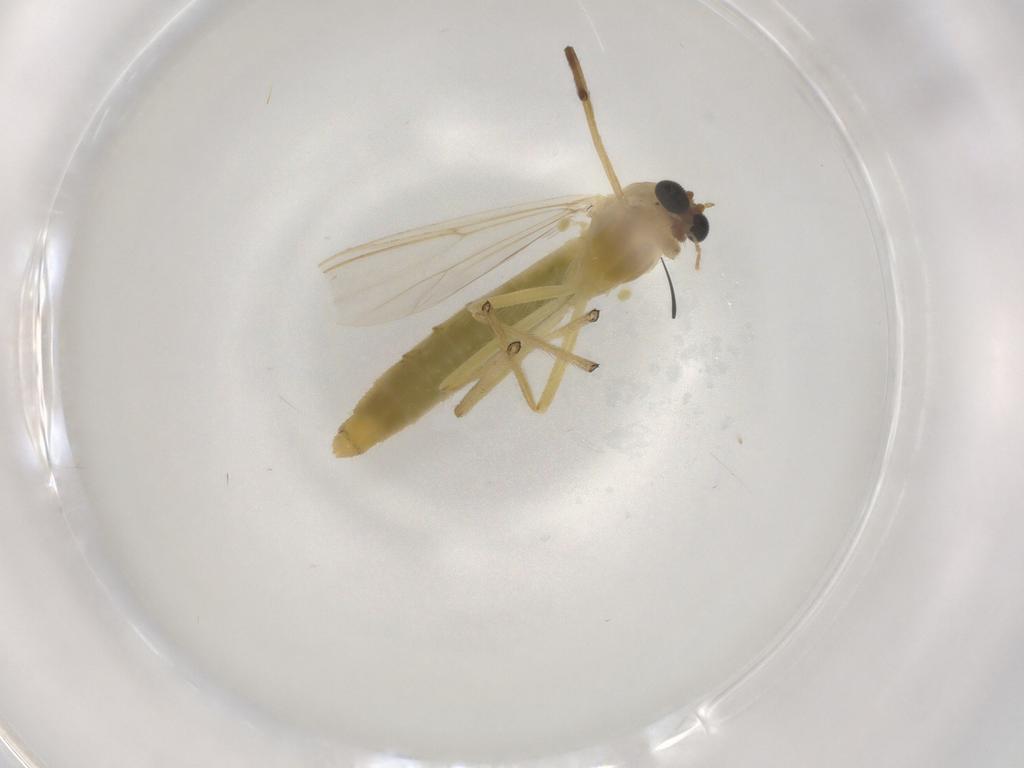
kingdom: Animalia
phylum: Arthropoda
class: Insecta
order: Diptera
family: Chironomidae
